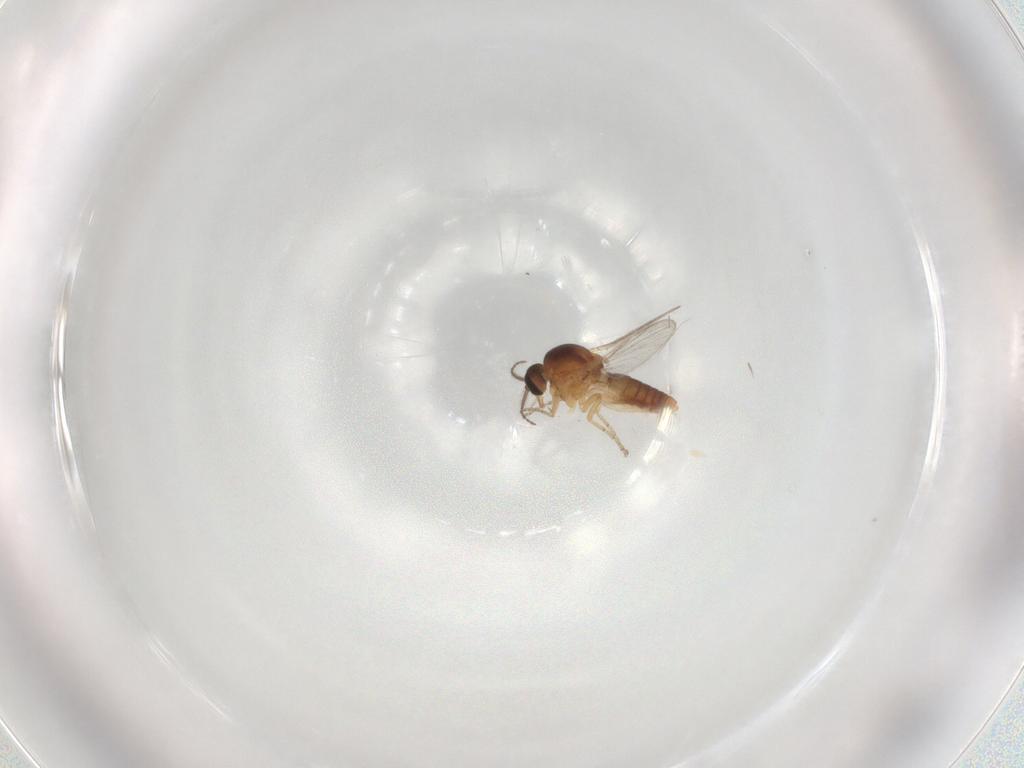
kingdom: Animalia
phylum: Arthropoda
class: Insecta
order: Diptera
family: Ceratopogonidae
